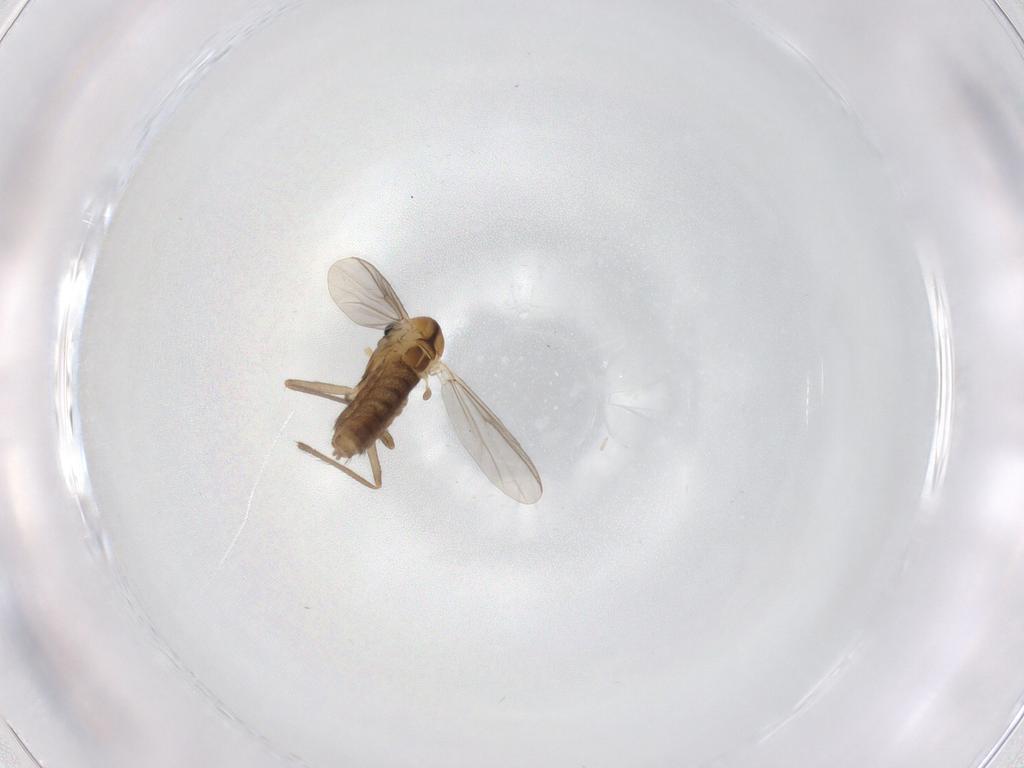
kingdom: Animalia
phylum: Arthropoda
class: Insecta
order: Diptera
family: Chironomidae
